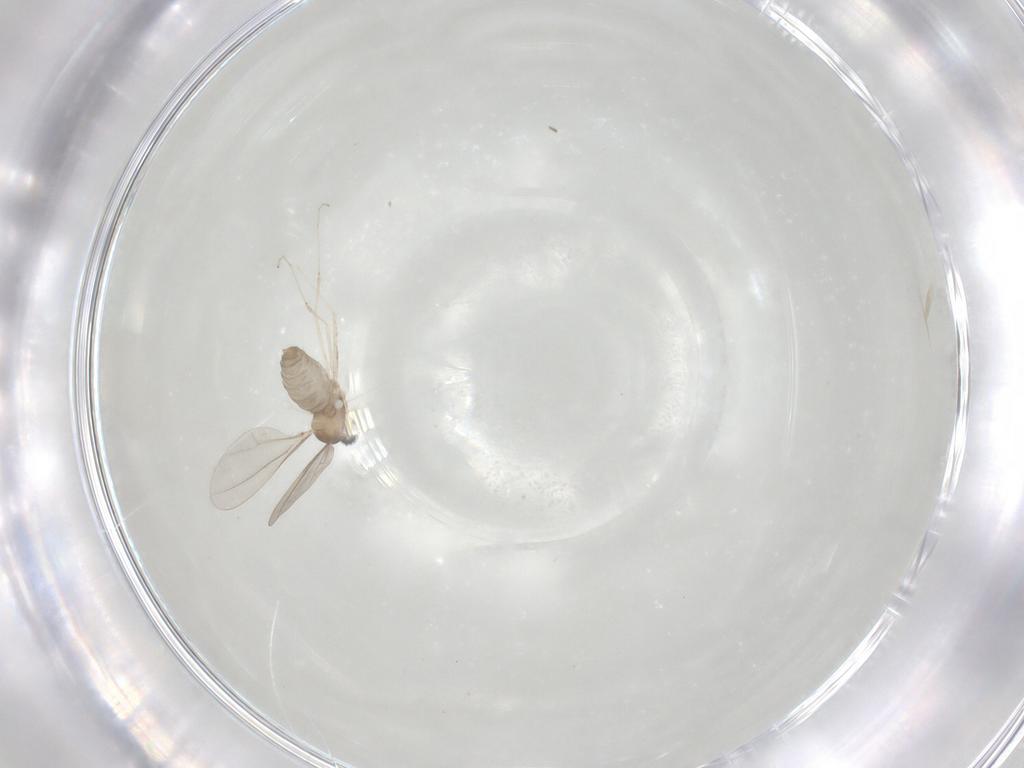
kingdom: Animalia
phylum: Arthropoda
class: Insecta
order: Diptera
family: Cecidomyiidae
